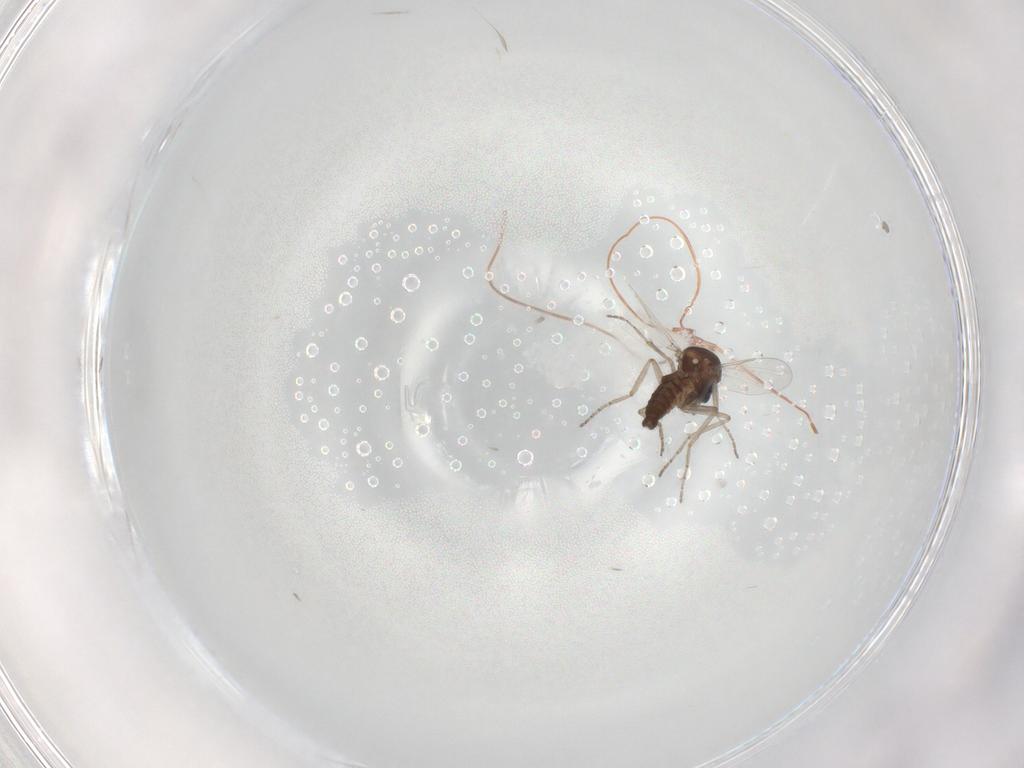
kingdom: Animalia
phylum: Arthropoda
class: Insecta
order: Diptera
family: Ceratopogonidae
